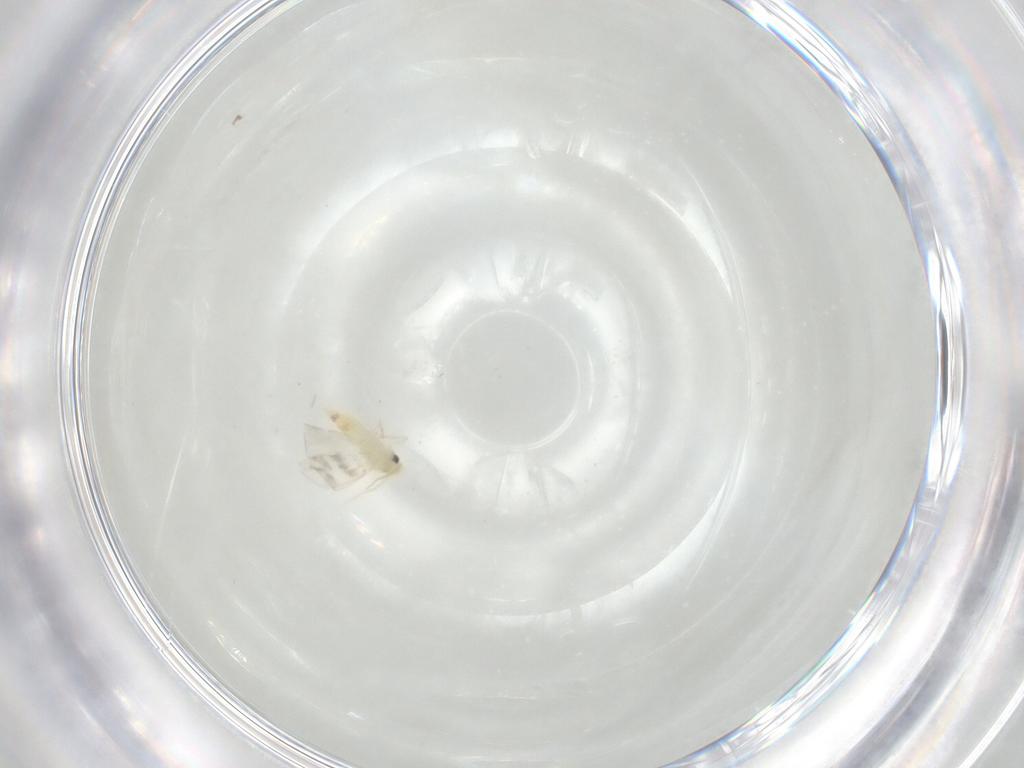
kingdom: Animalia
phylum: Arthropoda
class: Insecta
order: Hemiptera
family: Aleyrodidae
